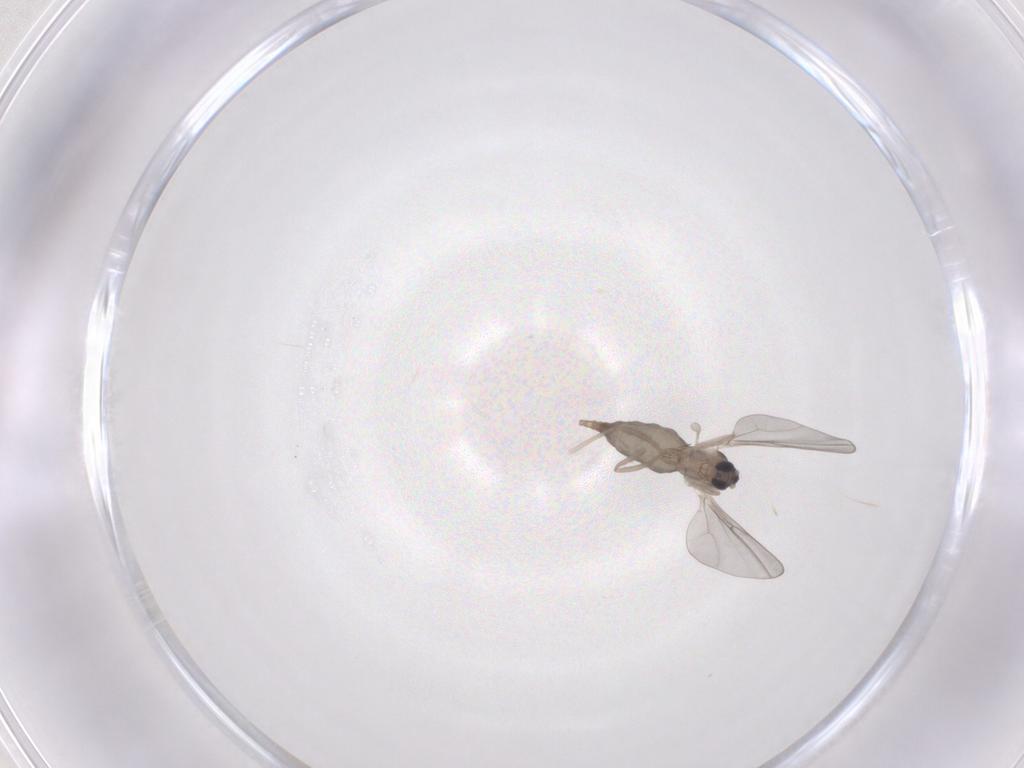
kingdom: Animalia
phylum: Arthropoda
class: Insecta
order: Diptera
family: Cecidomyiidae
